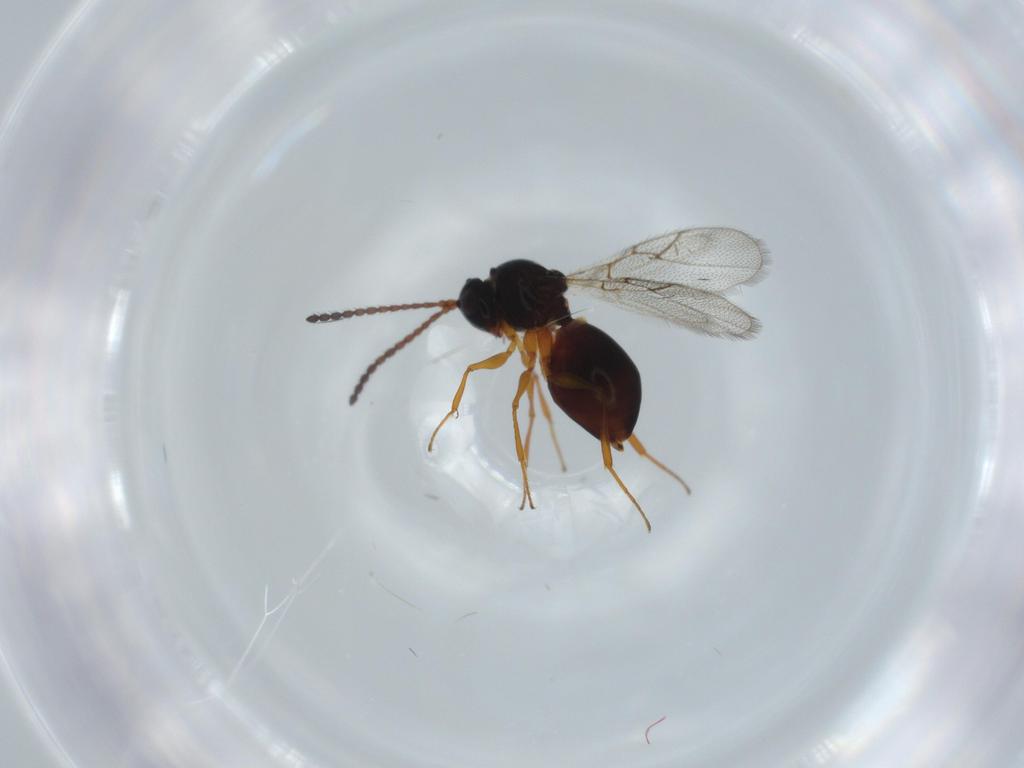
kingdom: Animalia
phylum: Arthropoda
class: Insecta
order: Hymenoptera
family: Figitidae
